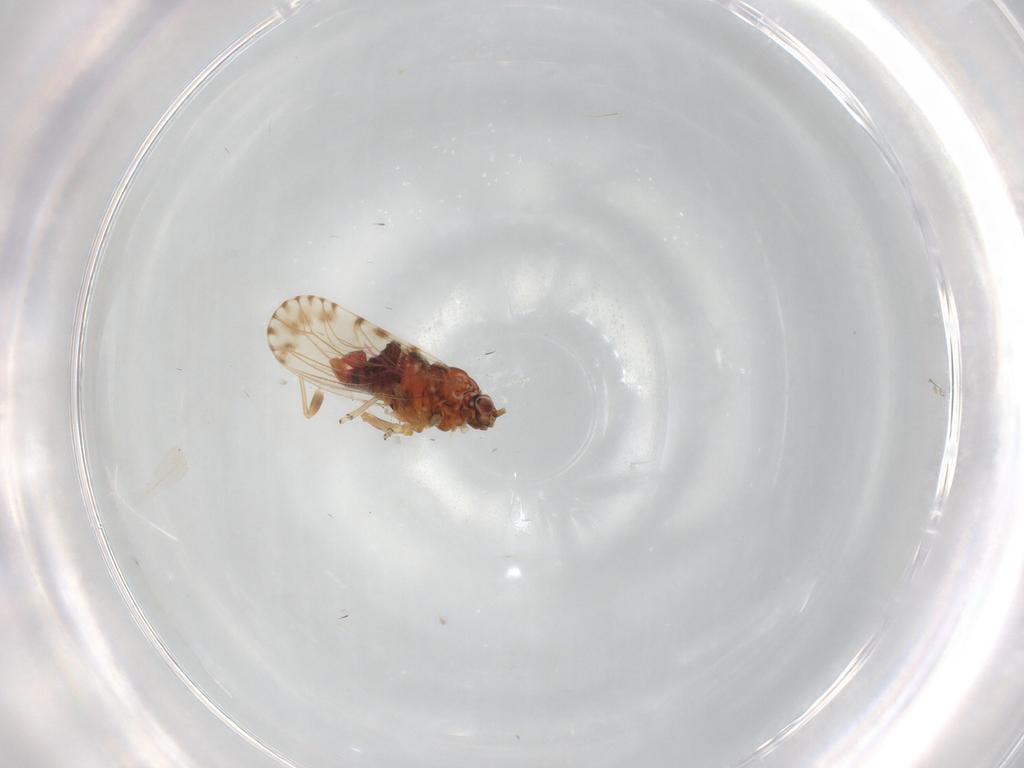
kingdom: Animalia
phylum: Arthropoda
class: Insecta
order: Hemiptera
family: Psyllidae
